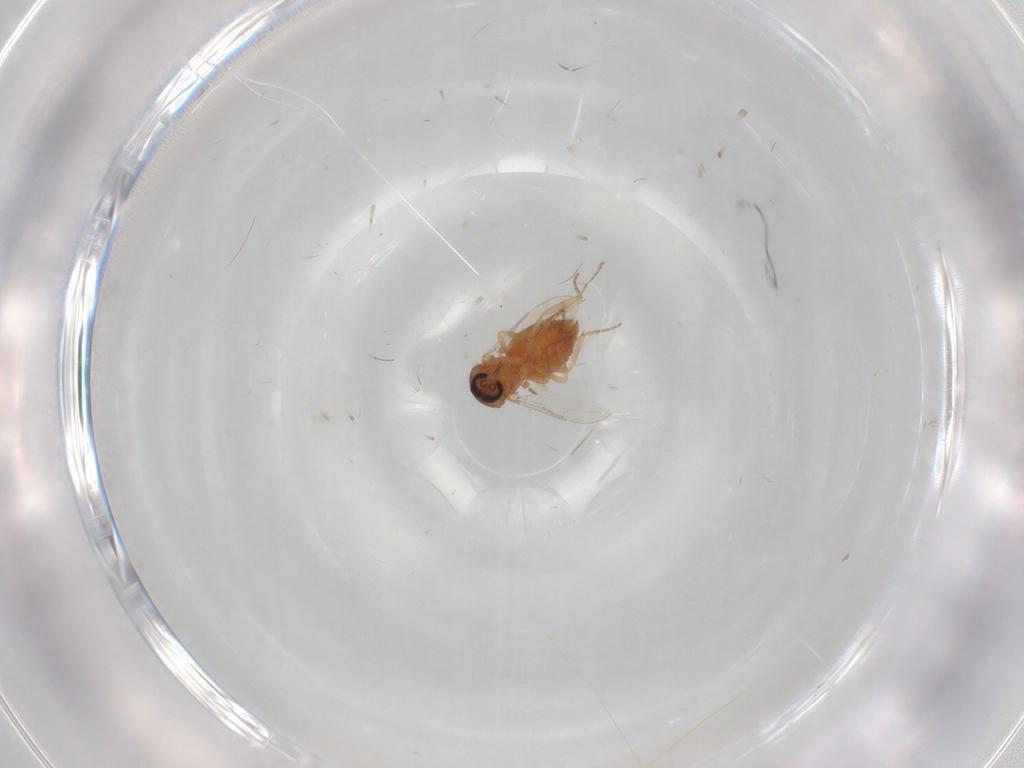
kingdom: Animalia
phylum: Arthropoda
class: Insecta
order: Diptera
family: Ceratopogonidae
